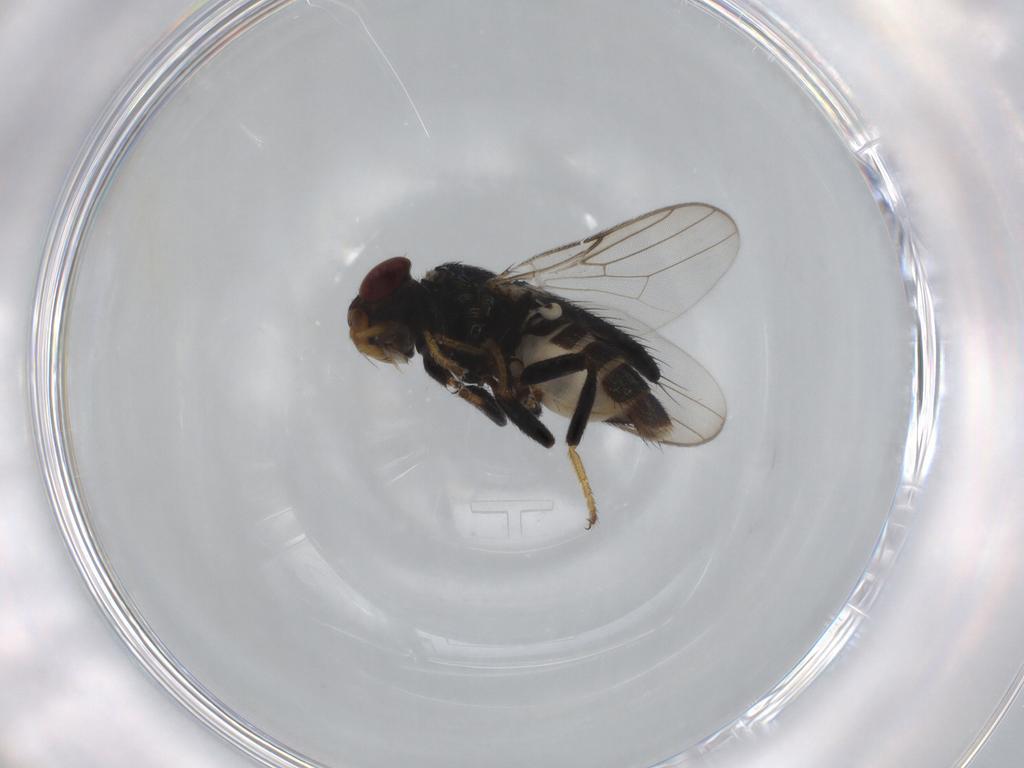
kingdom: Animalia
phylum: Arthropoda
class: Insecta
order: Diptera
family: Chloropidae
